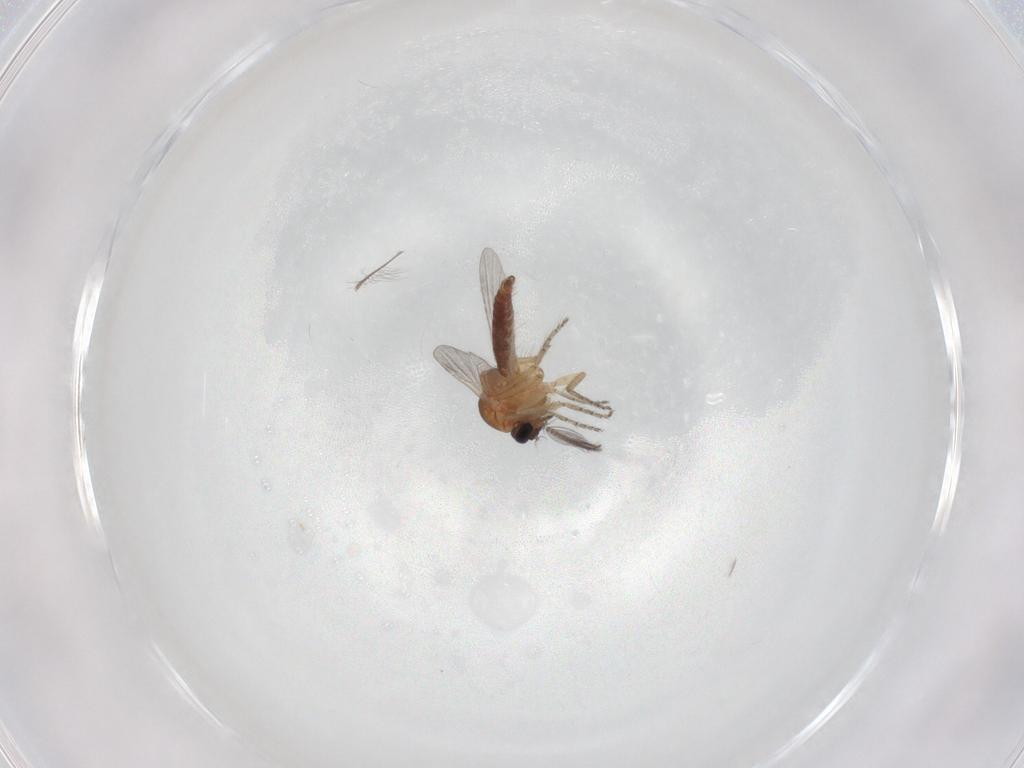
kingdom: Animalia
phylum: Arthropoda
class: Insecta
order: Diptera
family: Ceratopogonidae
